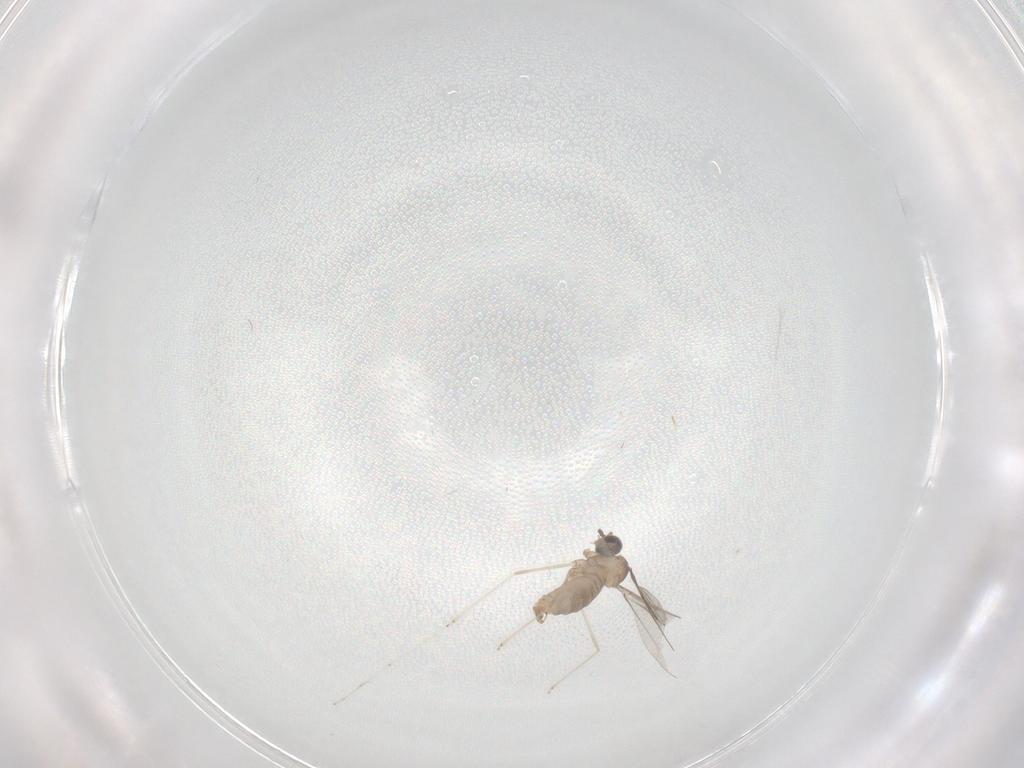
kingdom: Animalia
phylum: Arthropoda
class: Insecta
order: Diptera
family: Cecidomyiidae
